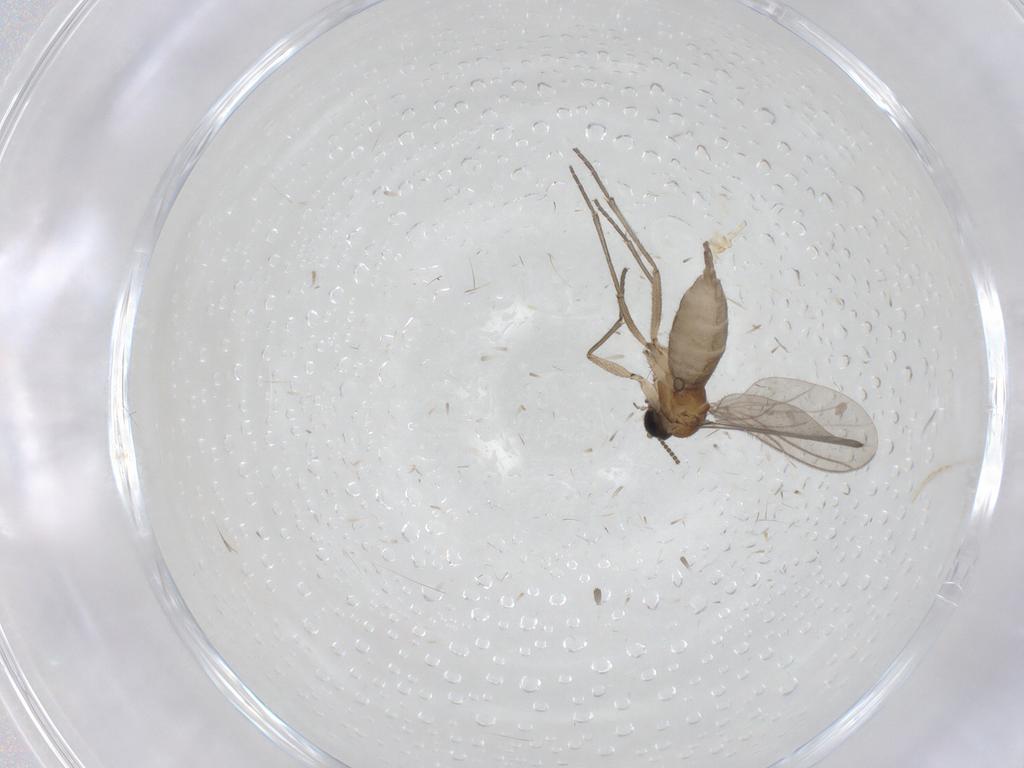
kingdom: Animalia
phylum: Arthropoda
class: Insecta
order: Diptera
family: Sciaridae
